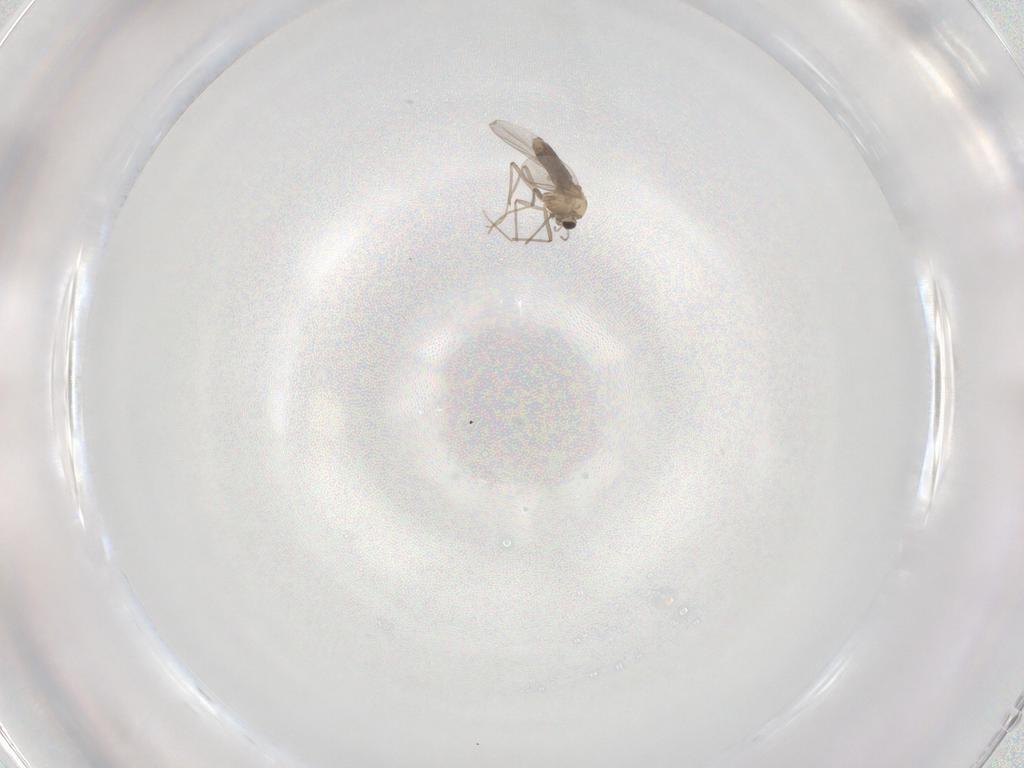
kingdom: Animalia
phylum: Arthropoda
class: Insecta
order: Diptera
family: Chironomidae
